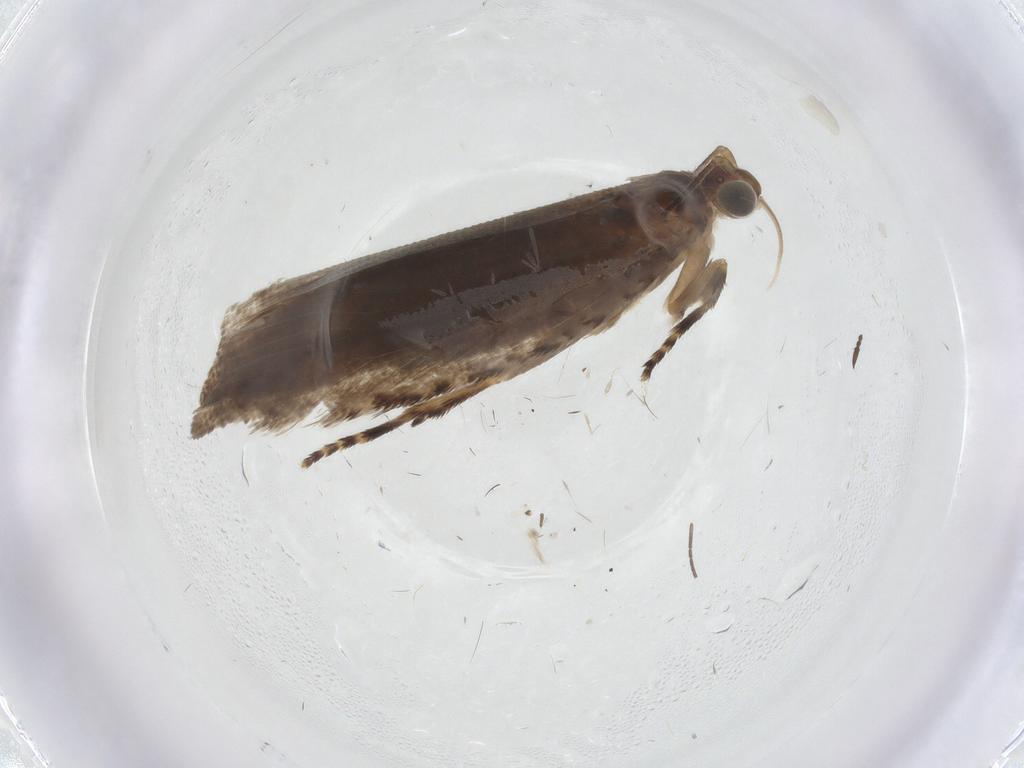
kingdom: Animalia
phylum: Arthropoda
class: Insecta
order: Lepidoptera
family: Tortricidae
